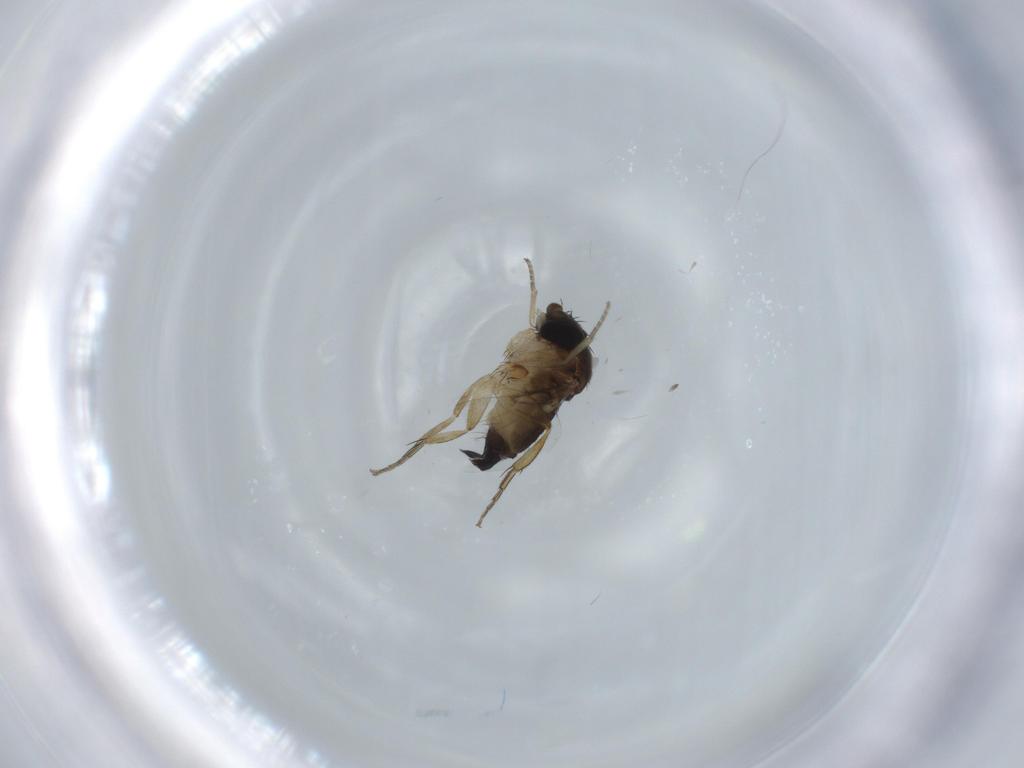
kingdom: Animalia
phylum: Arthropoda
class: Insecta
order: Diptera
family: Phoridae
